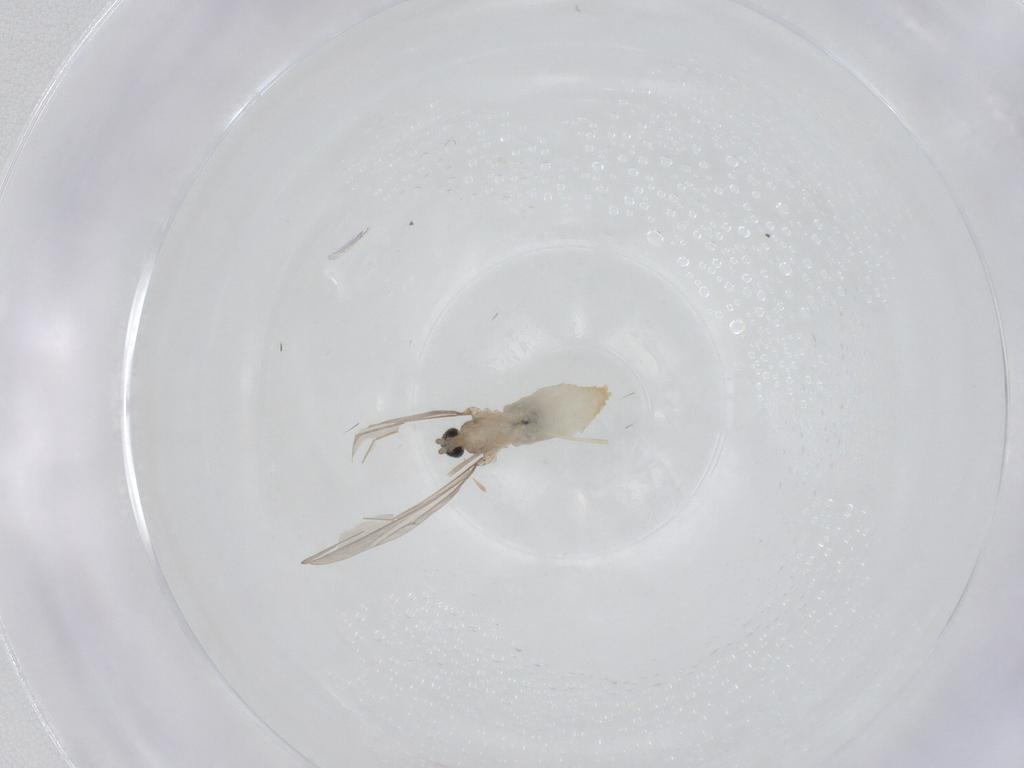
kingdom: Animalia
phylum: Arthropoda
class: Insecta
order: Diptera
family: Cecidomyiidae
